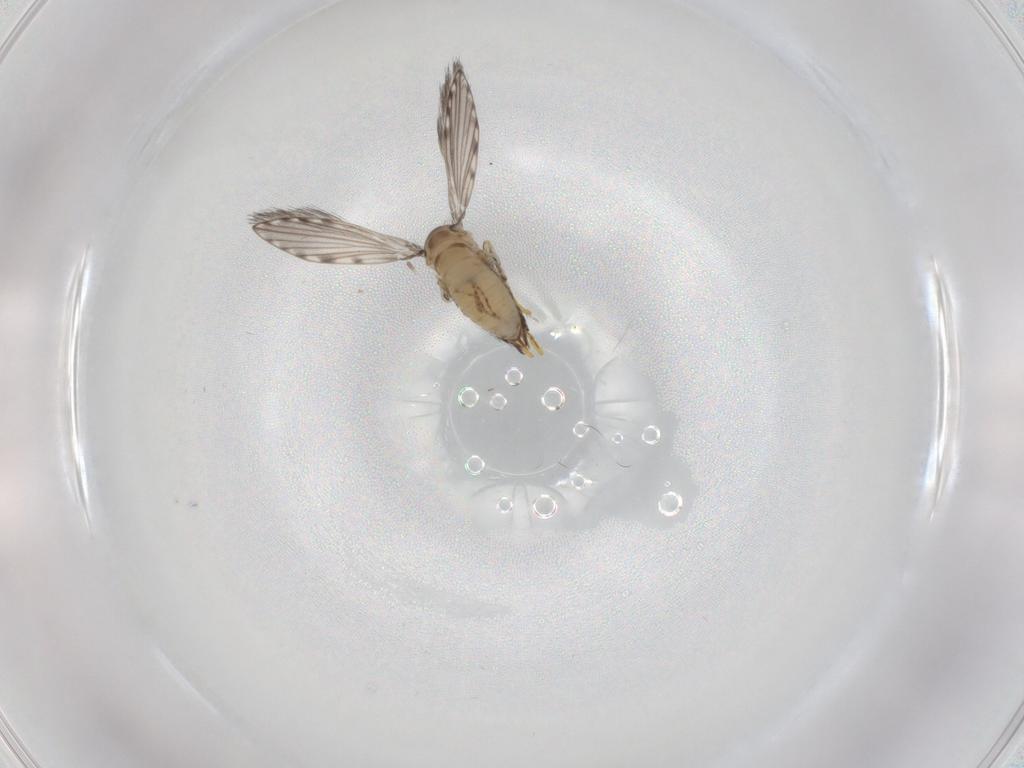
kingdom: Animalia
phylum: Arthropoda
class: Insecta
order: Diptera
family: Psychodidae
